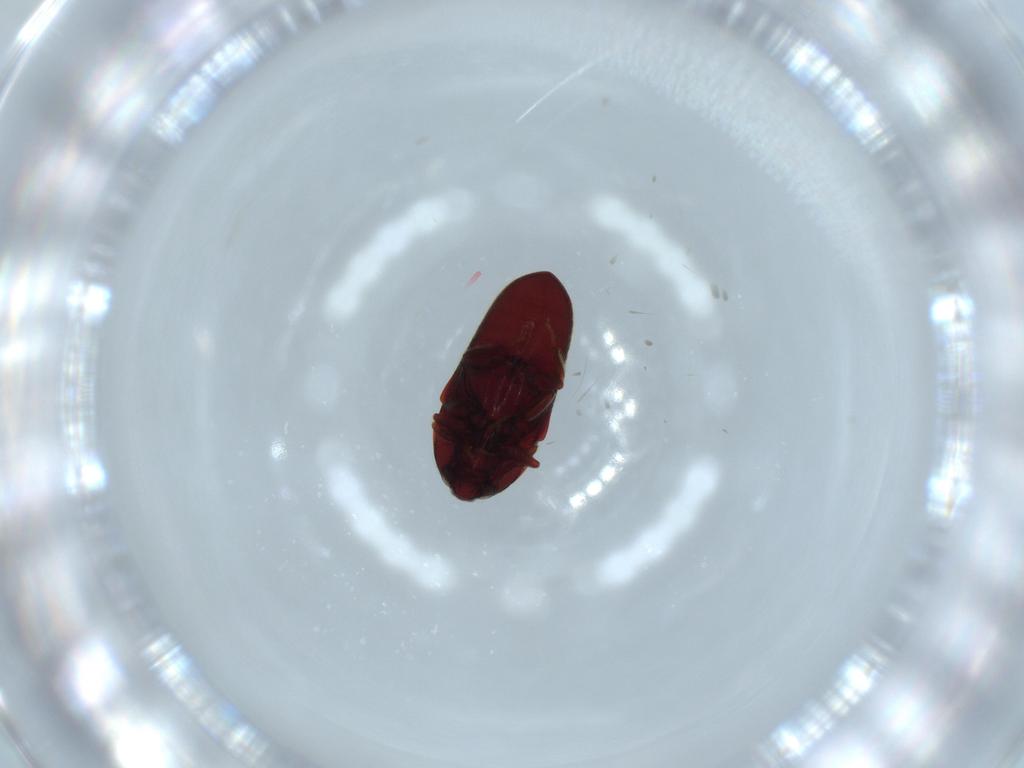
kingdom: Animalia
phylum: Arthropoda
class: Insecta
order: Coleoptera
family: Throscidae
